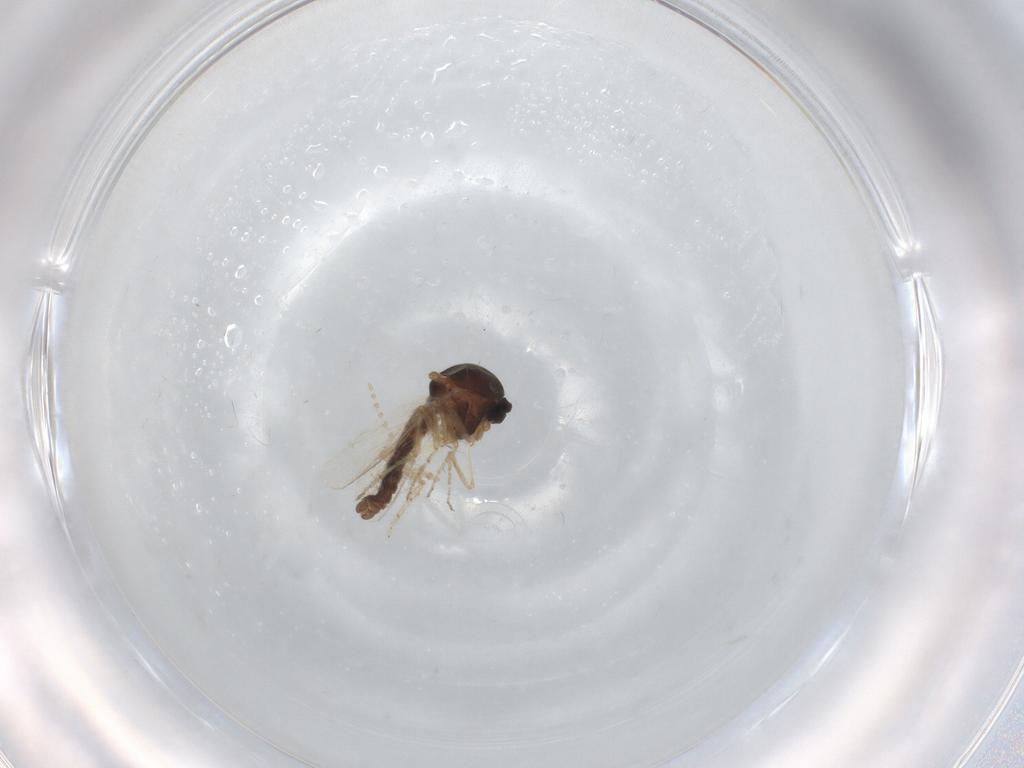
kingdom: Animalia
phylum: Arthropoda
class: Insecta
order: Diptera
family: Ceratopogonidae
